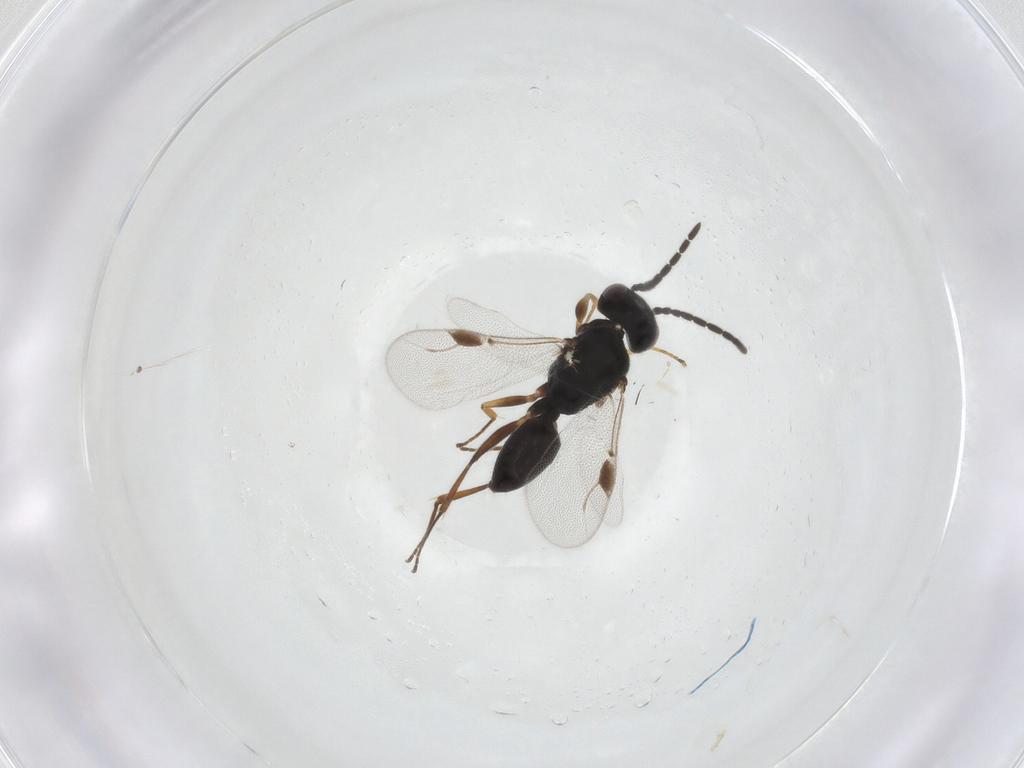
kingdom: Animalia
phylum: Arthropoda
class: Insecta
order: Hymenoptera
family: Dryinidae
